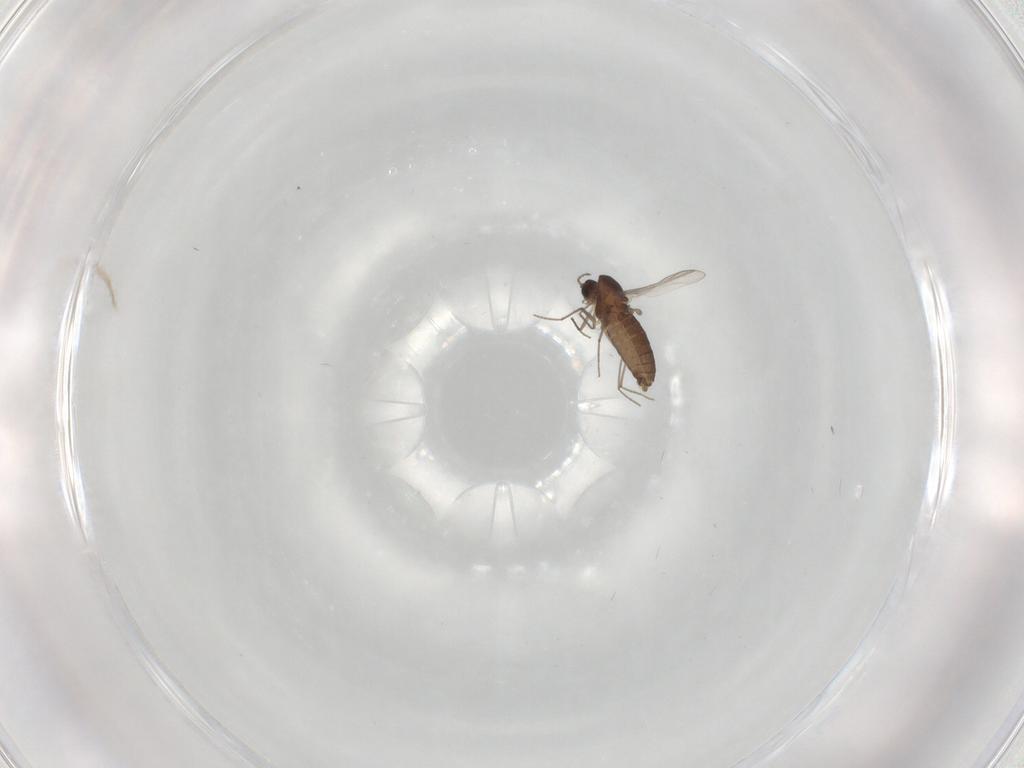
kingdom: Animalia
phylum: Arthropoda
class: Insecta
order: Diptera
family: Chironomidae
